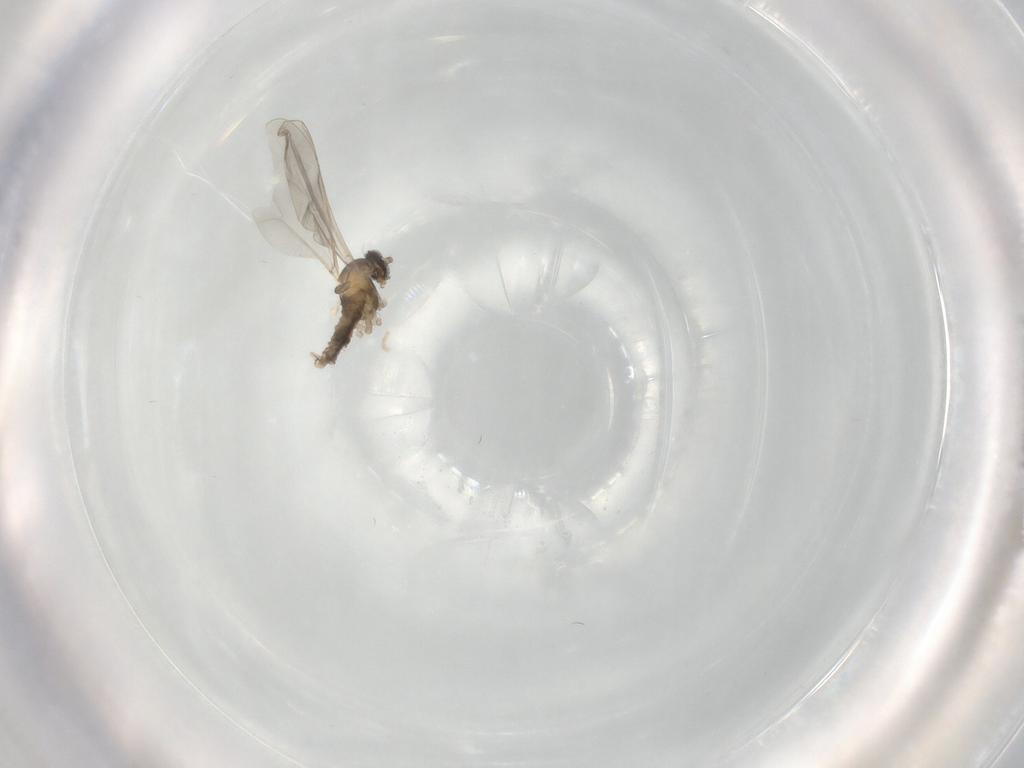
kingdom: Animalia
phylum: Arthropoda
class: Insecta
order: Diptera
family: Cecidomyiidae
